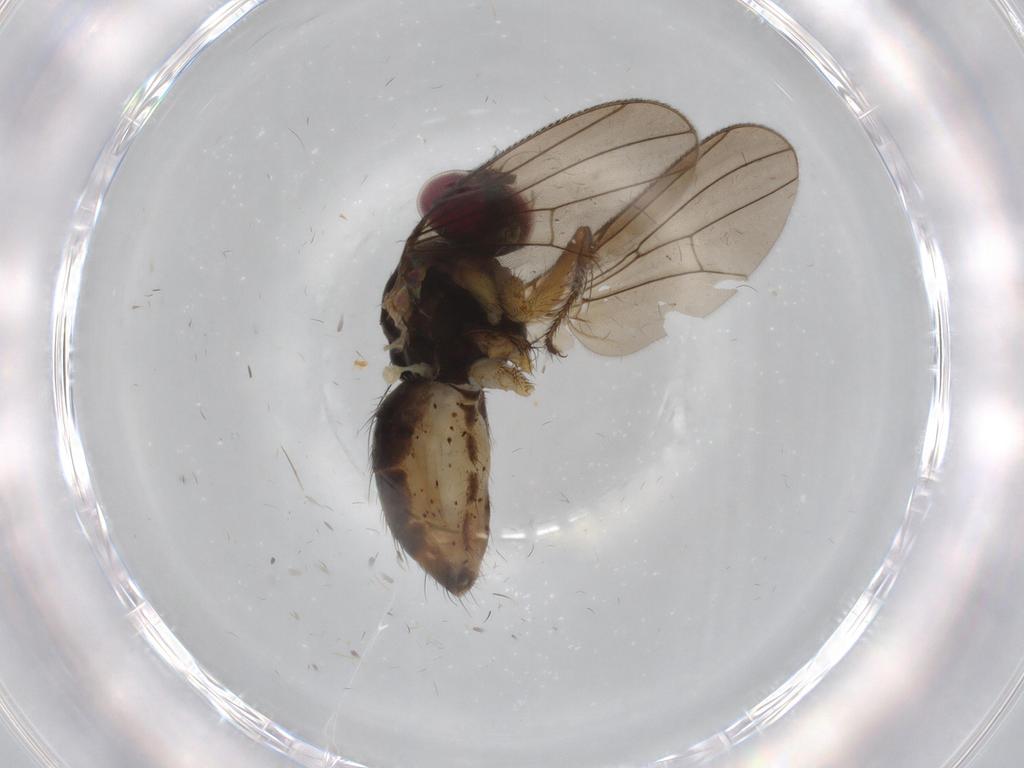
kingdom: Animalia
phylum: Arthropoda
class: Insecta
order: Diptera
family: Anthomyiidae
